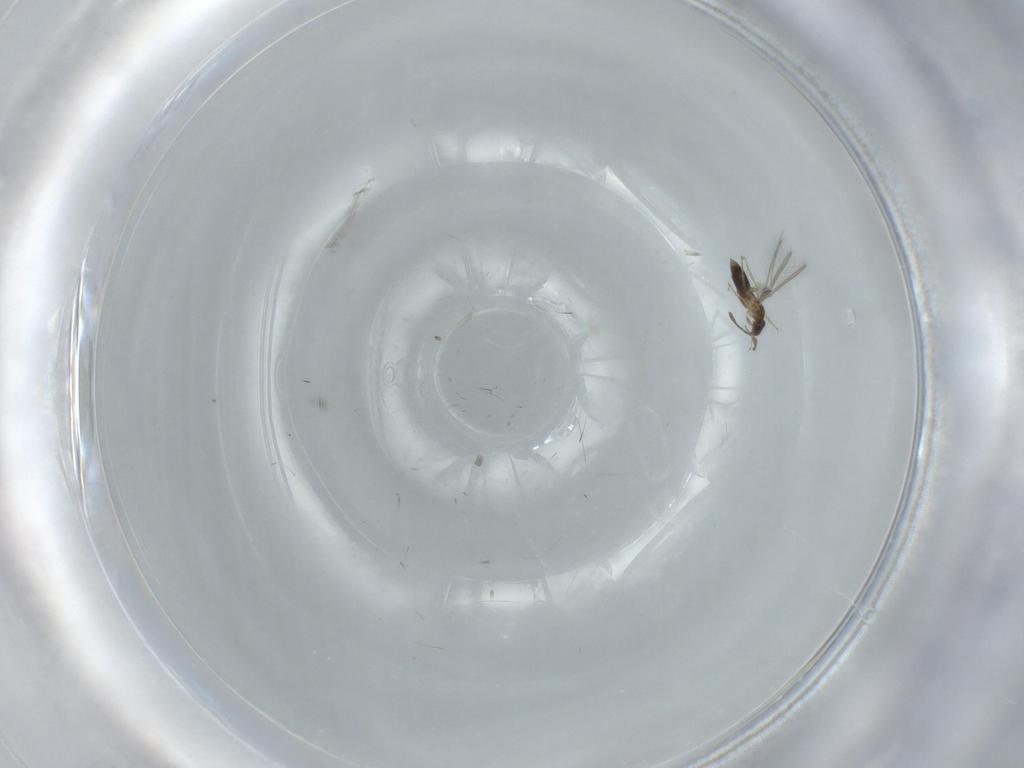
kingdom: Animalia
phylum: Arthropoda
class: Insecta
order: Hymenoptera
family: Mymaridae
